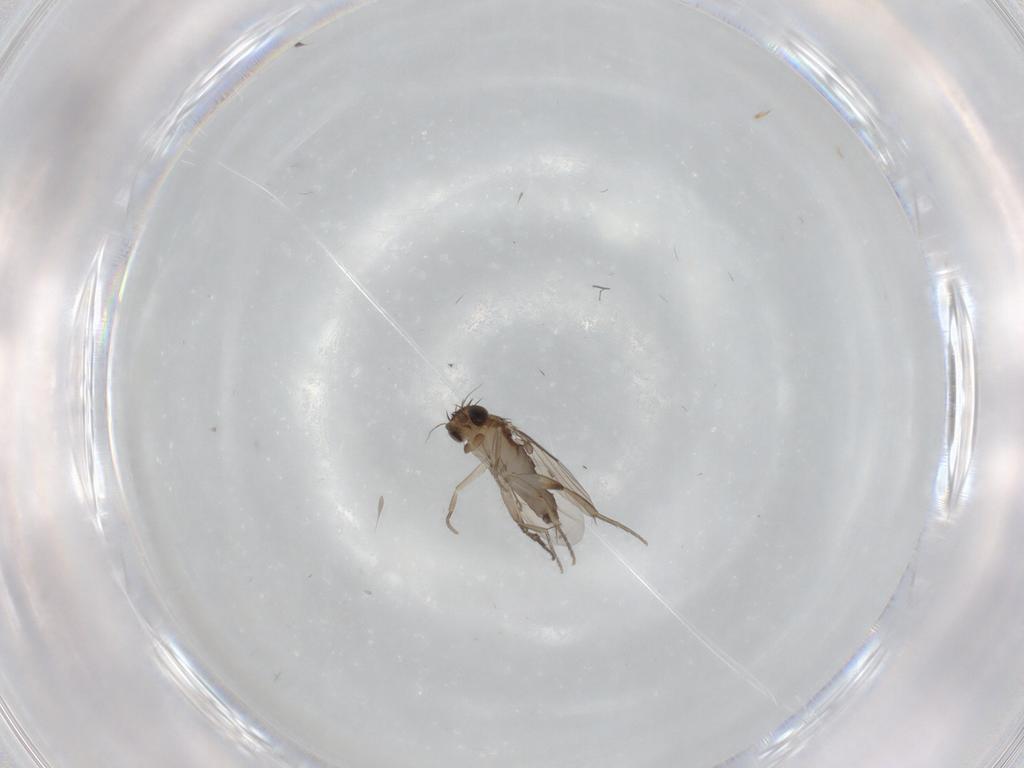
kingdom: Animalia
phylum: Arthropoda
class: Insecta
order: Diptera
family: Phoridae
